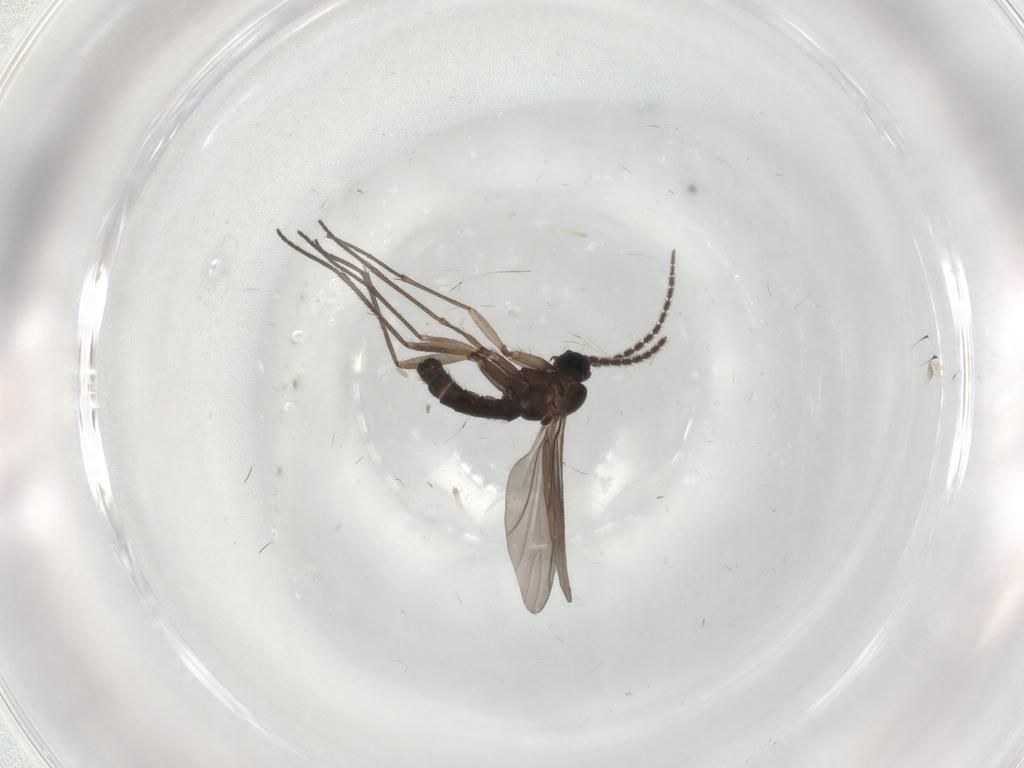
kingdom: Animalia
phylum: Arthropoda
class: Insecta
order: Diptera
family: Sciaridae
